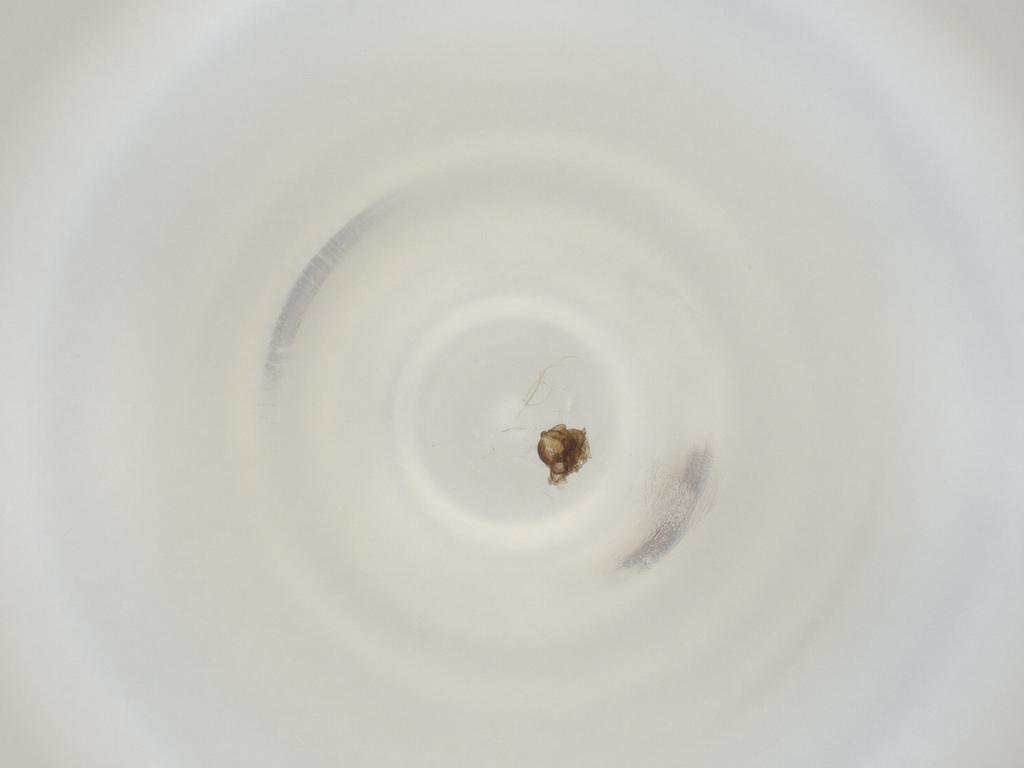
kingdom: Animalia
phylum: Arthropoda
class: Insecta
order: Diptera
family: Cecidomyiidae
